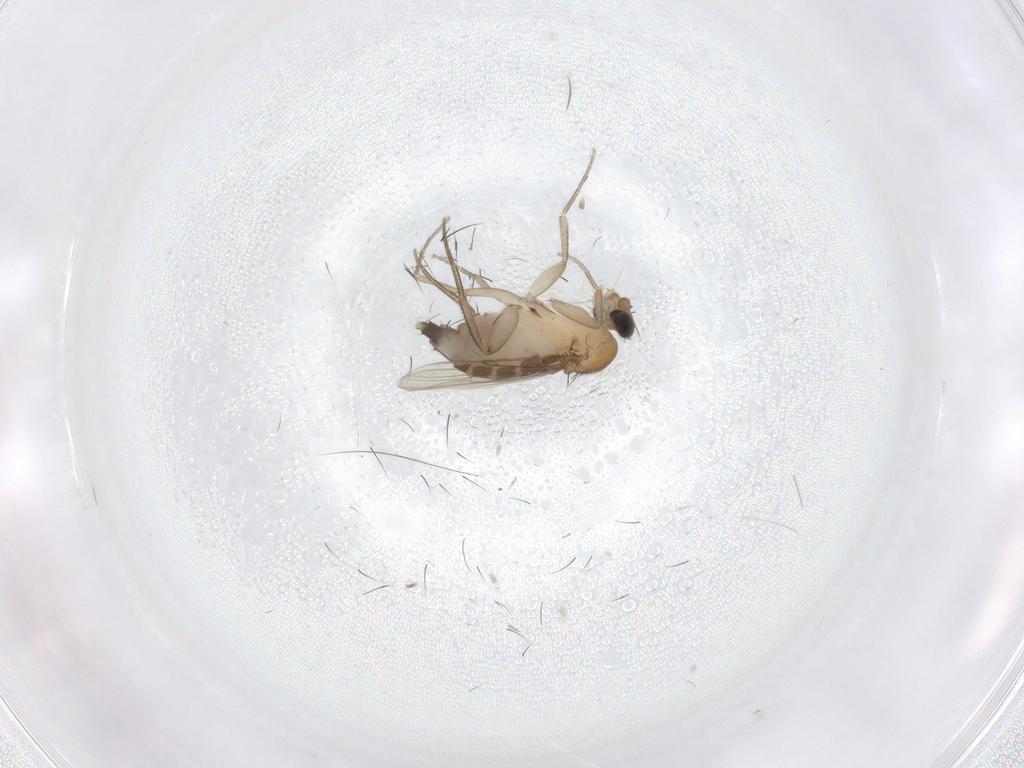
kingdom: Animalia
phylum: Arthropoda
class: Insecta
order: Diptera
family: Phoridae
